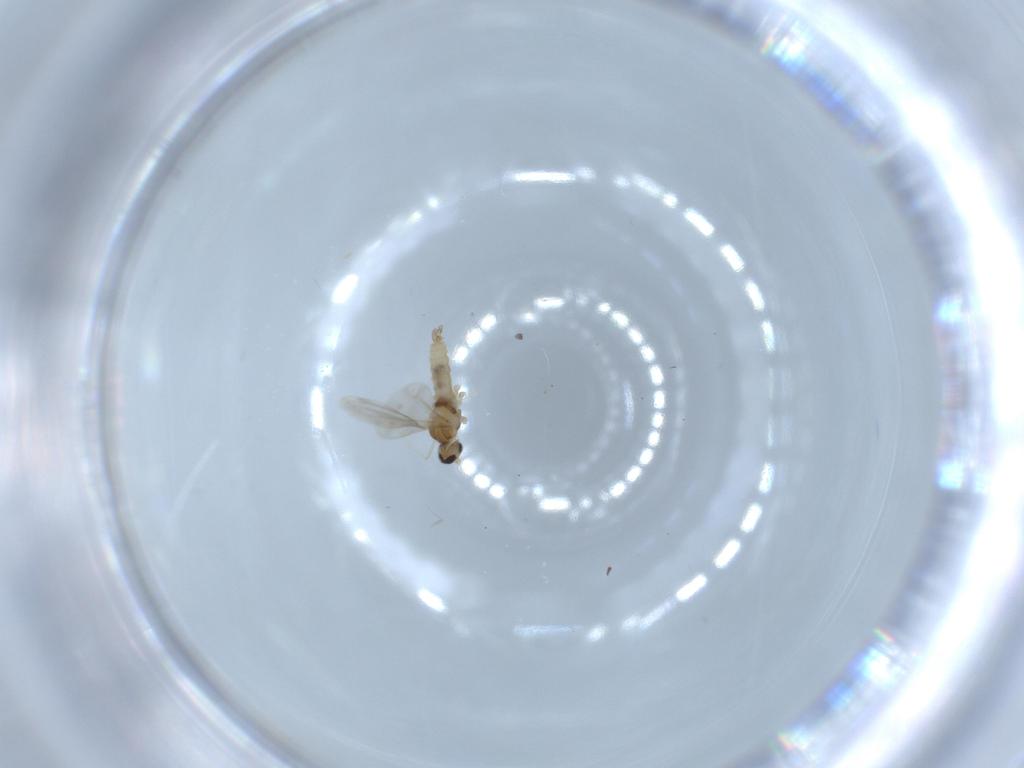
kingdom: Animalia
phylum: Arthropoda
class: Insecta
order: Diptera
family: Cecidomyiidae
